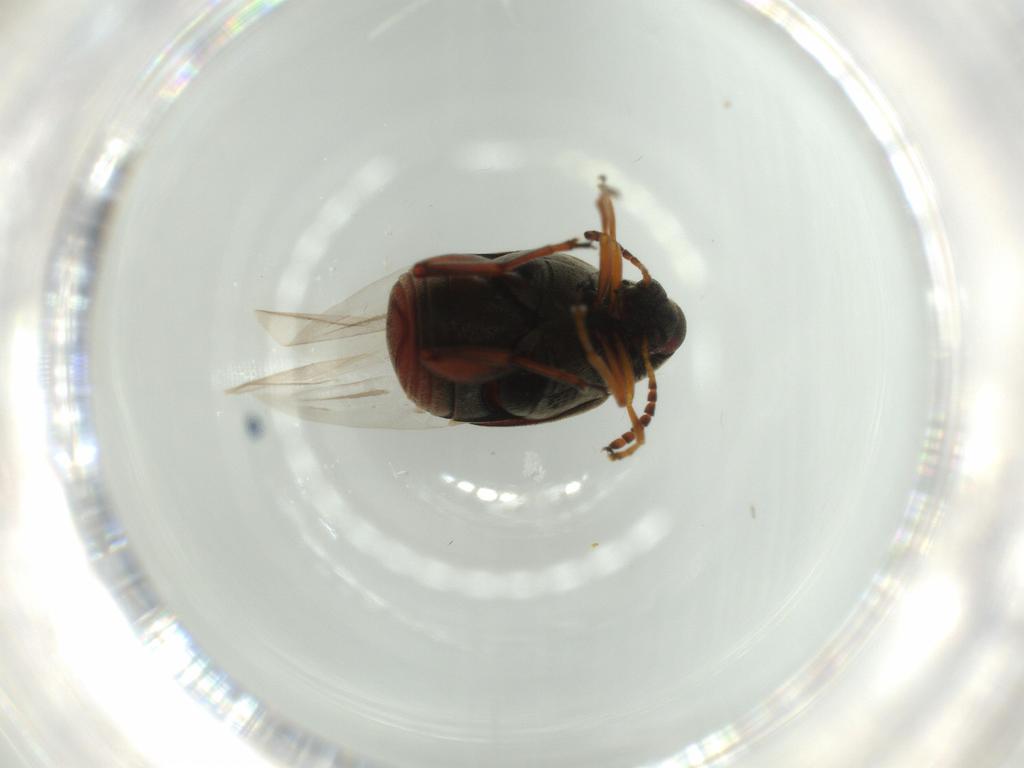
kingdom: Animalia
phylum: Arthropoda
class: Insecta
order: Coleoptera
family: Chrysomelidae
